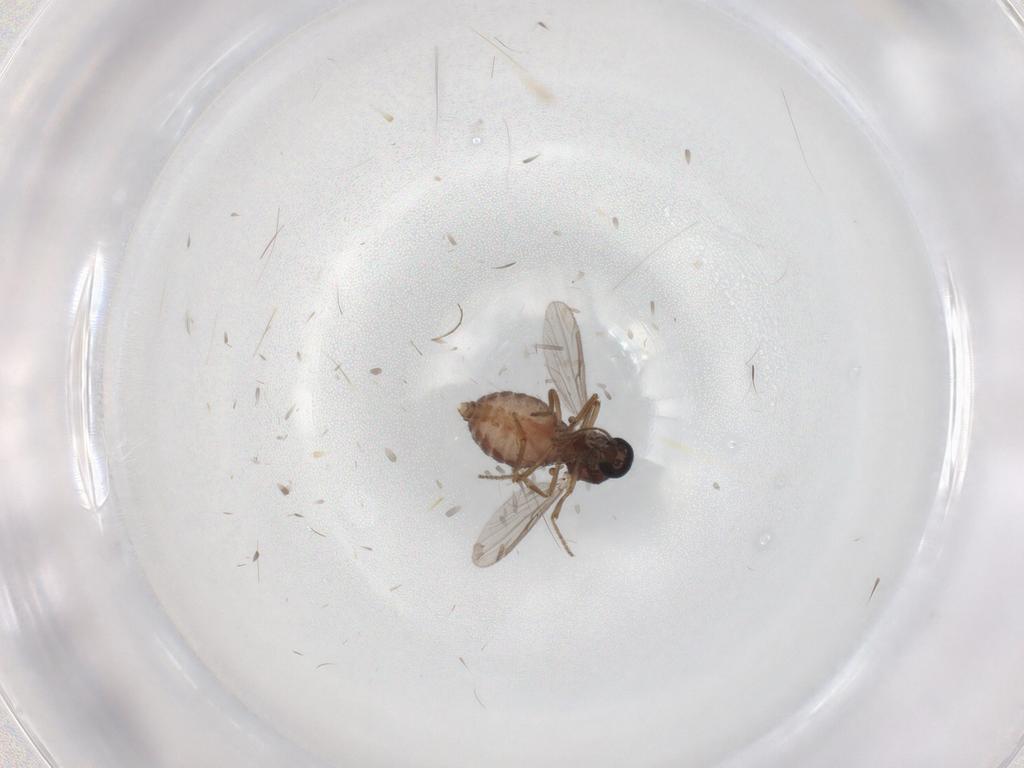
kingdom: Animalia
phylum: Arthropoda
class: Insecta
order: Diptera
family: Ceratopogonidae
